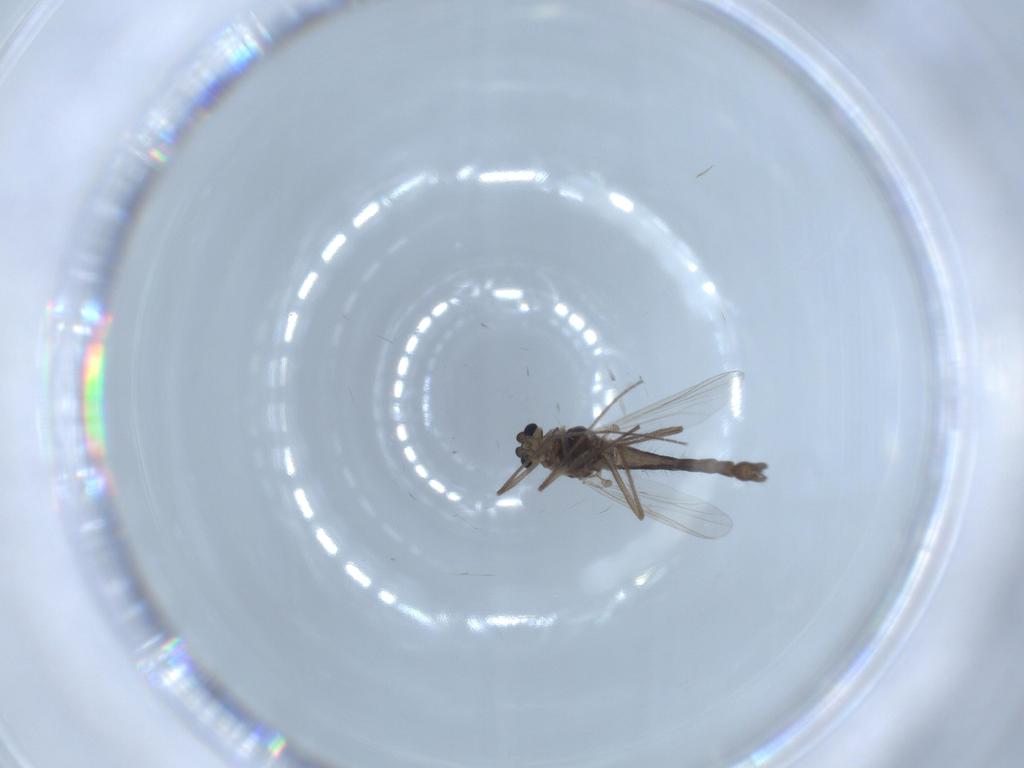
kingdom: Animalia
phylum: Arthropoda
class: Insecta
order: Diptera
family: Chironomidae
